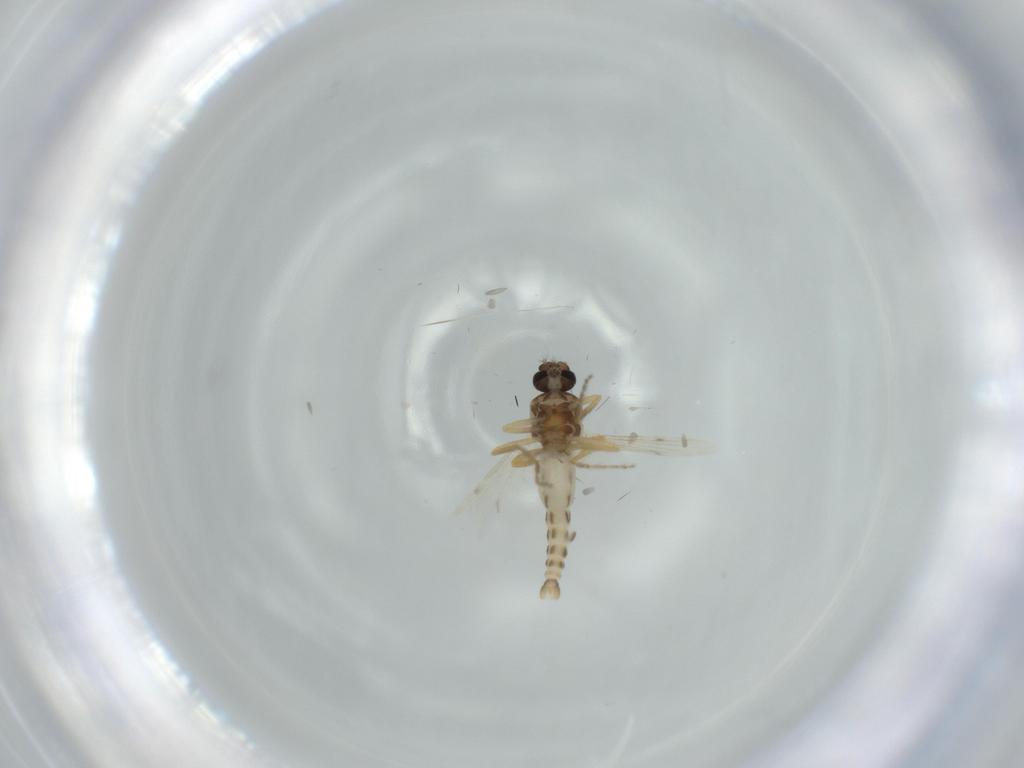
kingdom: Animalia
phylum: Arthropoda
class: Insecta
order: Diptera
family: Ceratopogonidae
